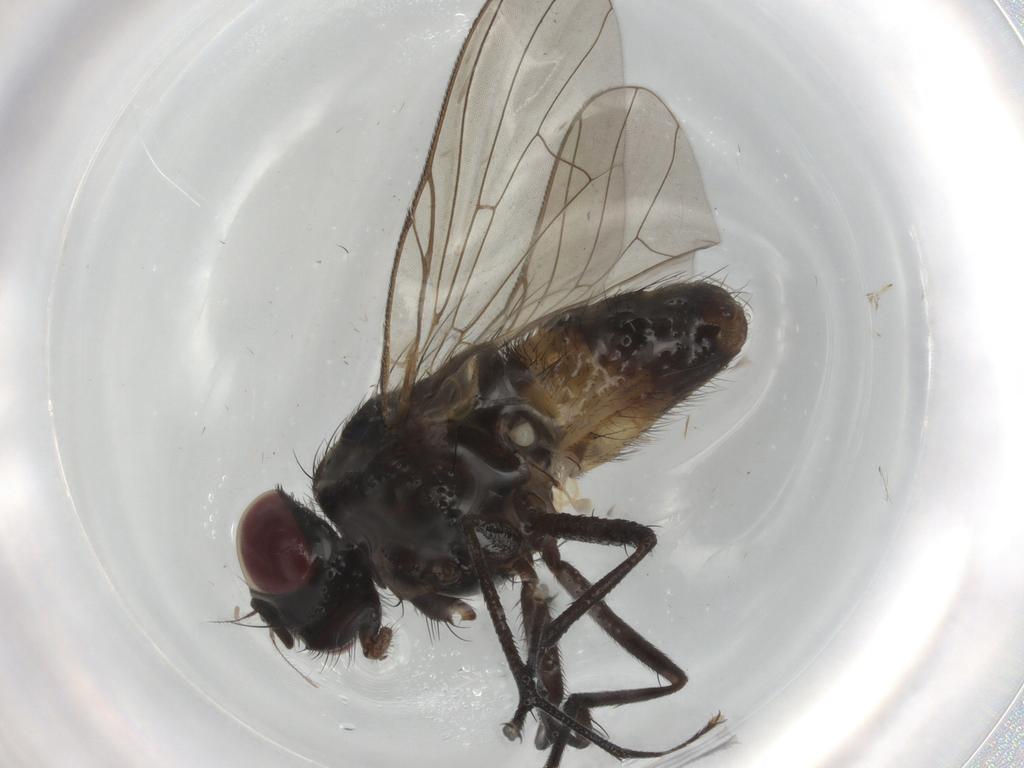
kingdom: Animalia
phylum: Arthropoda
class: Insecta
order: Diptera
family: Muscidae
